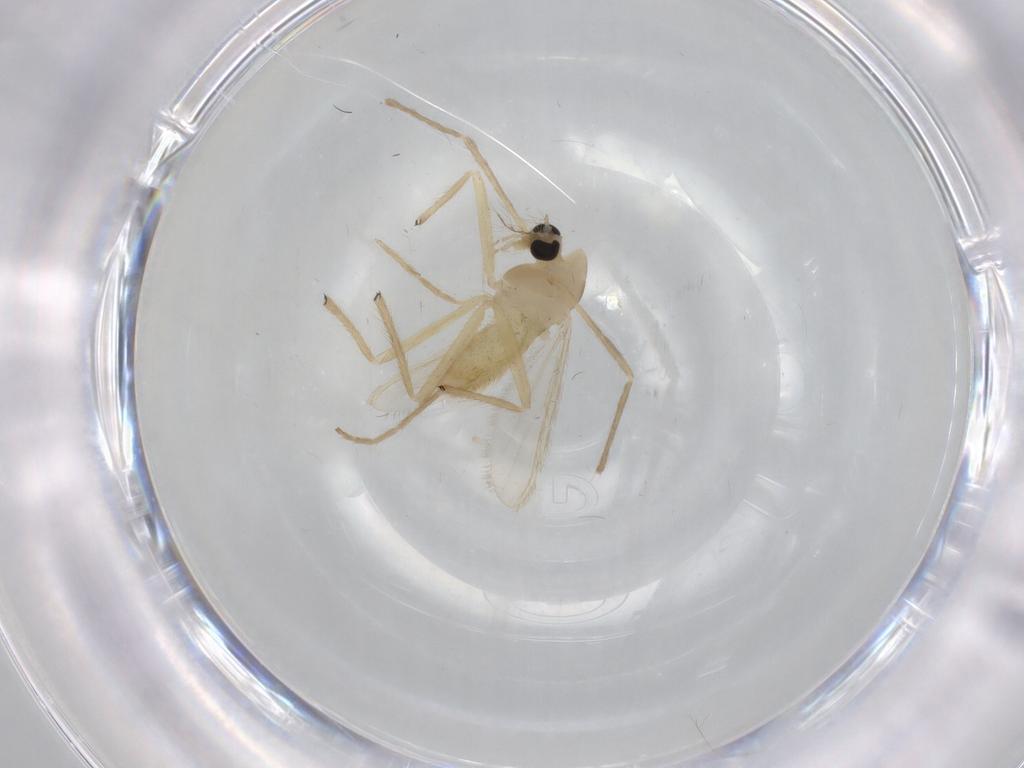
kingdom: Animalia
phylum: Arthropoda
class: Insecta
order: Diptera
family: Chironomidae
